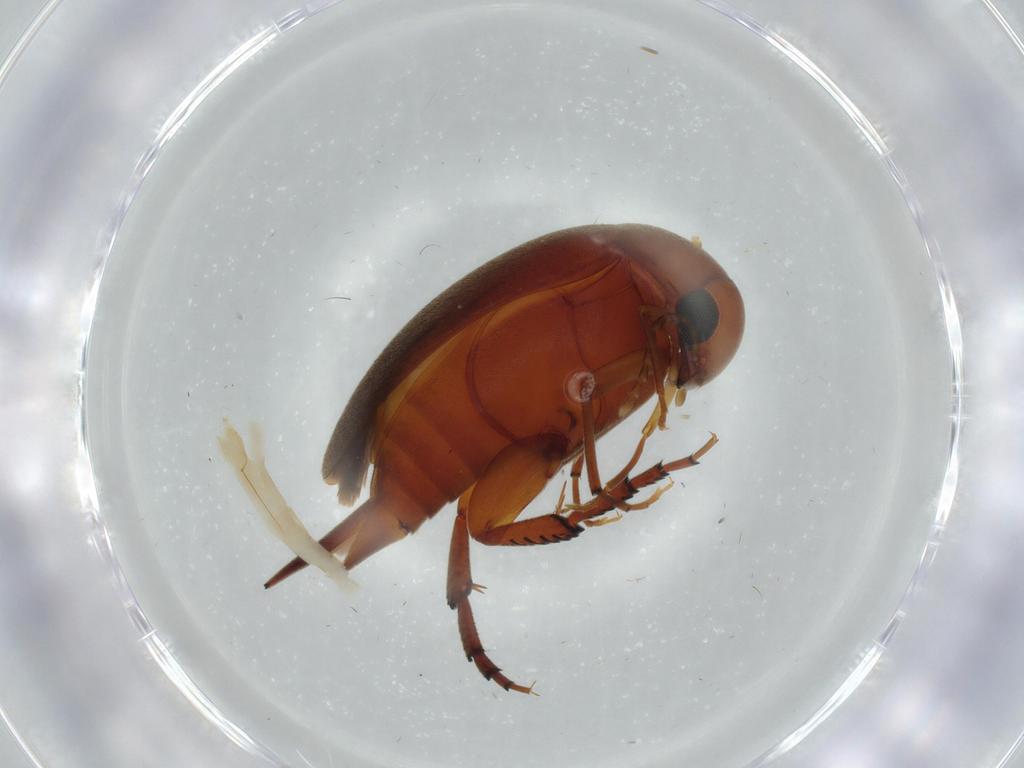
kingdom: Animalia
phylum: Arthropoda
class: Insecta
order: Coleoptera
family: Mordellidae
